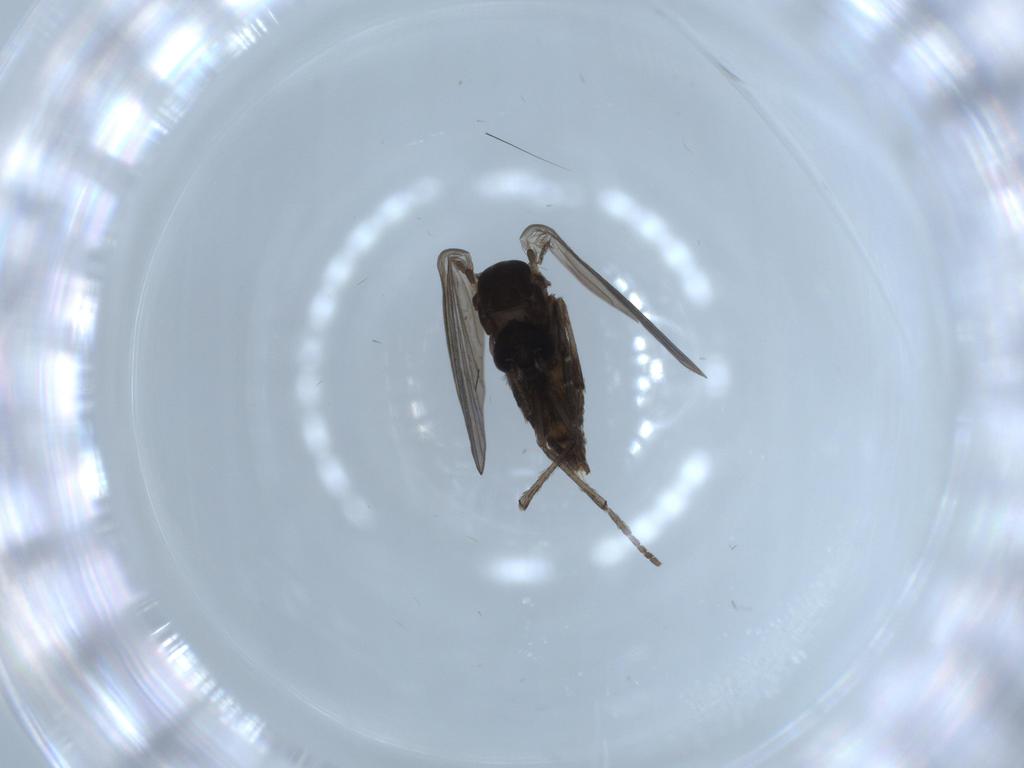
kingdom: Animalia
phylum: Arthropoda
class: Insecta
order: Diptera
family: Psychodidae
